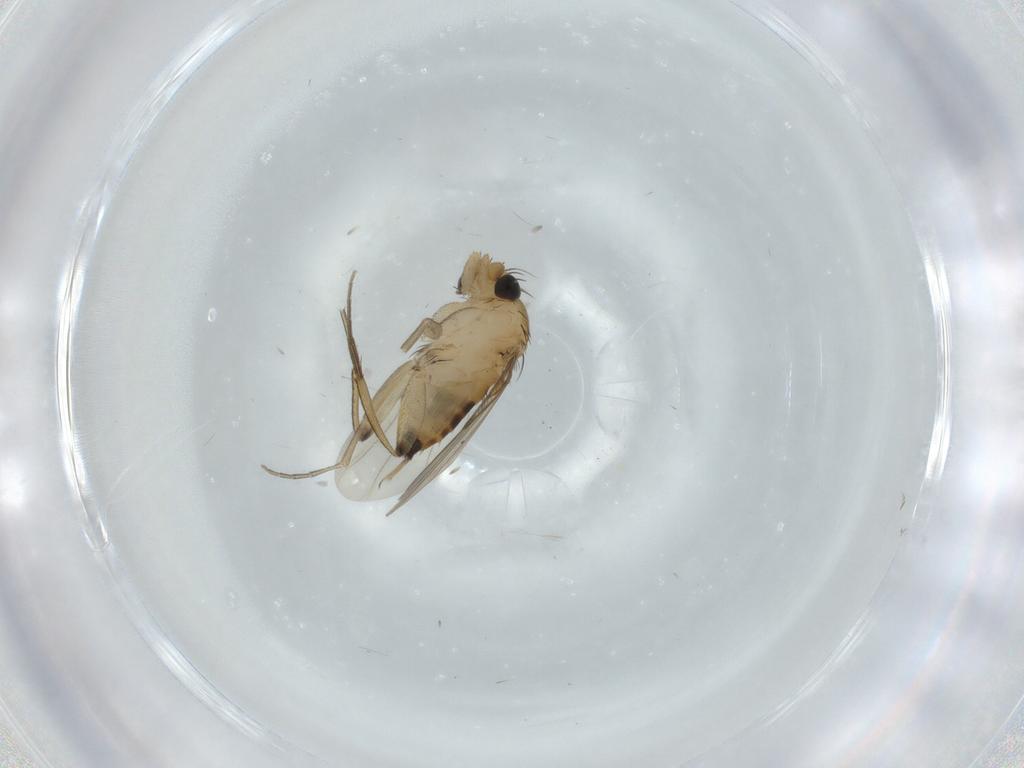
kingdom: Animalia
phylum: Arthropoda
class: Insecta
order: Diptera
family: Phoridae
